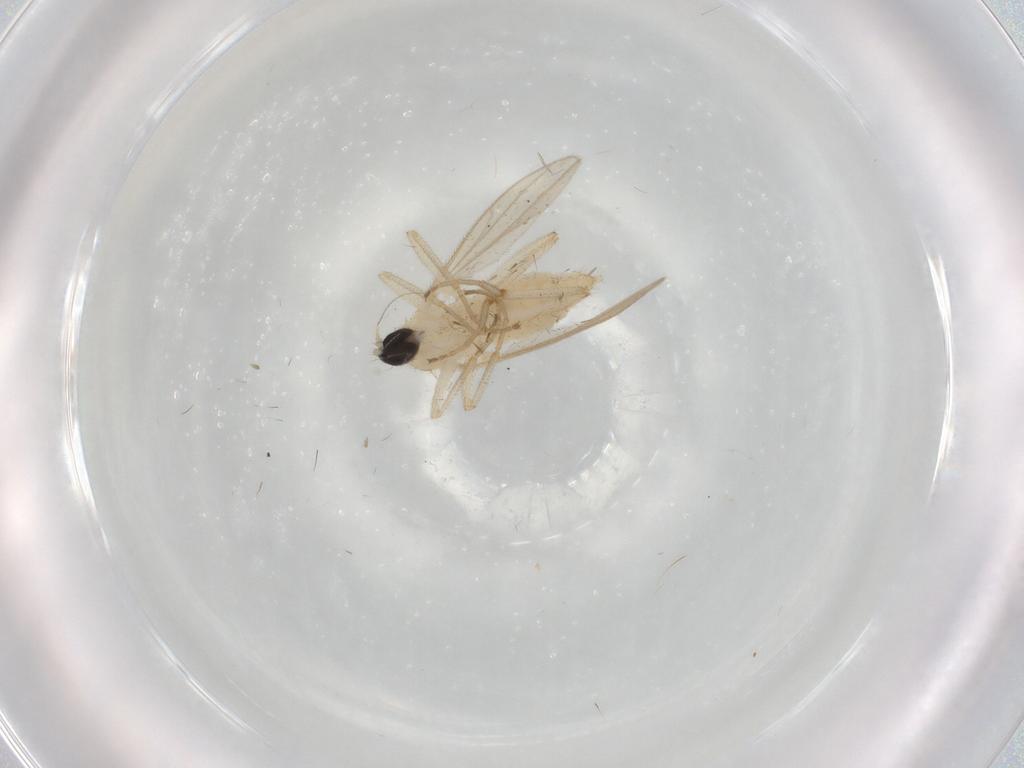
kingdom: Animalia
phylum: Arthropoda
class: Insecta
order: Diptera
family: Hybotidae
